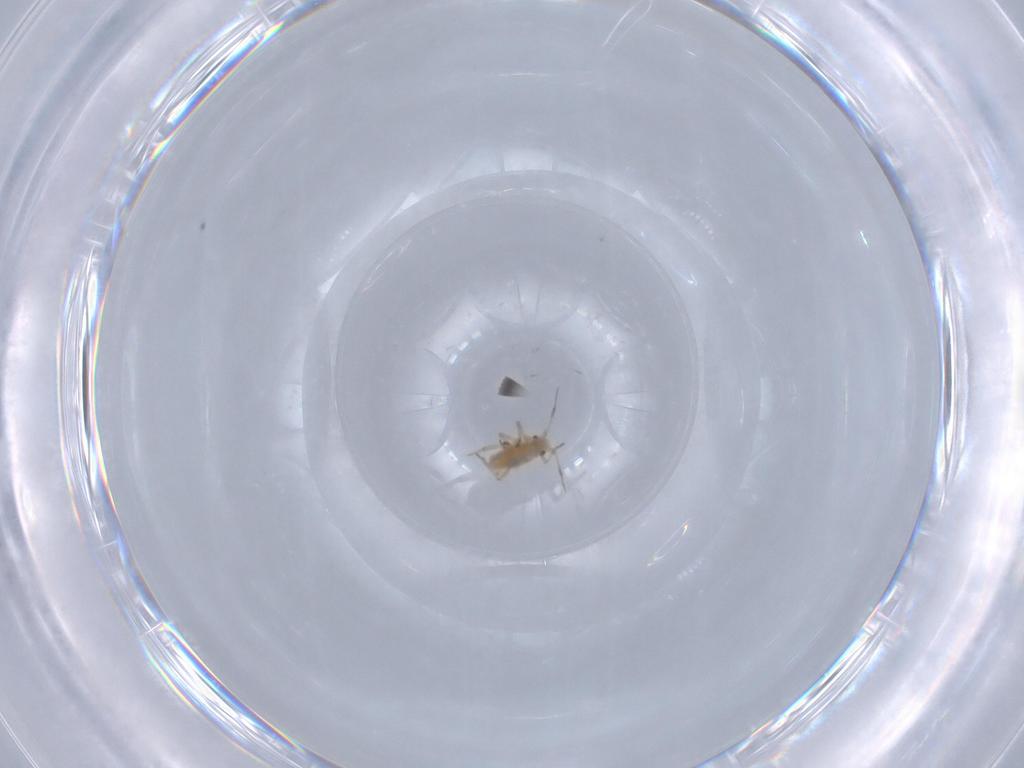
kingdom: Animalia
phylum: Arthropoda
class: Insecta
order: Hemiptera
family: Aphididae
